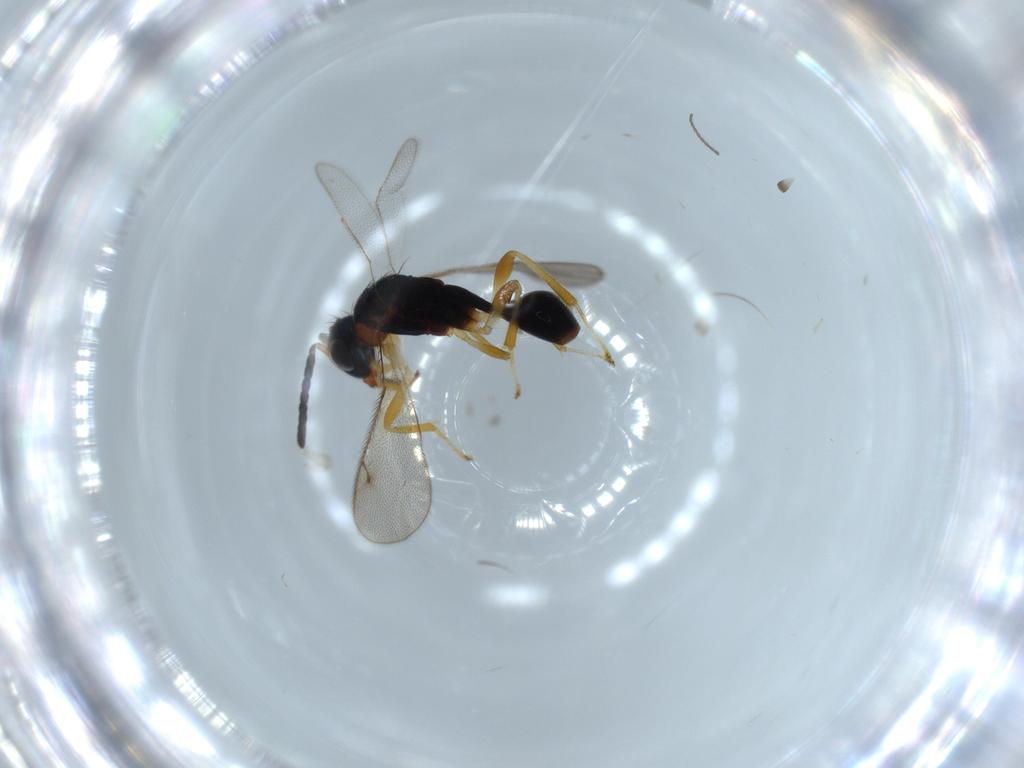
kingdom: Animalia
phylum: Arthropoda
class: Insecta
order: Hymenoptera
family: Diparidae
